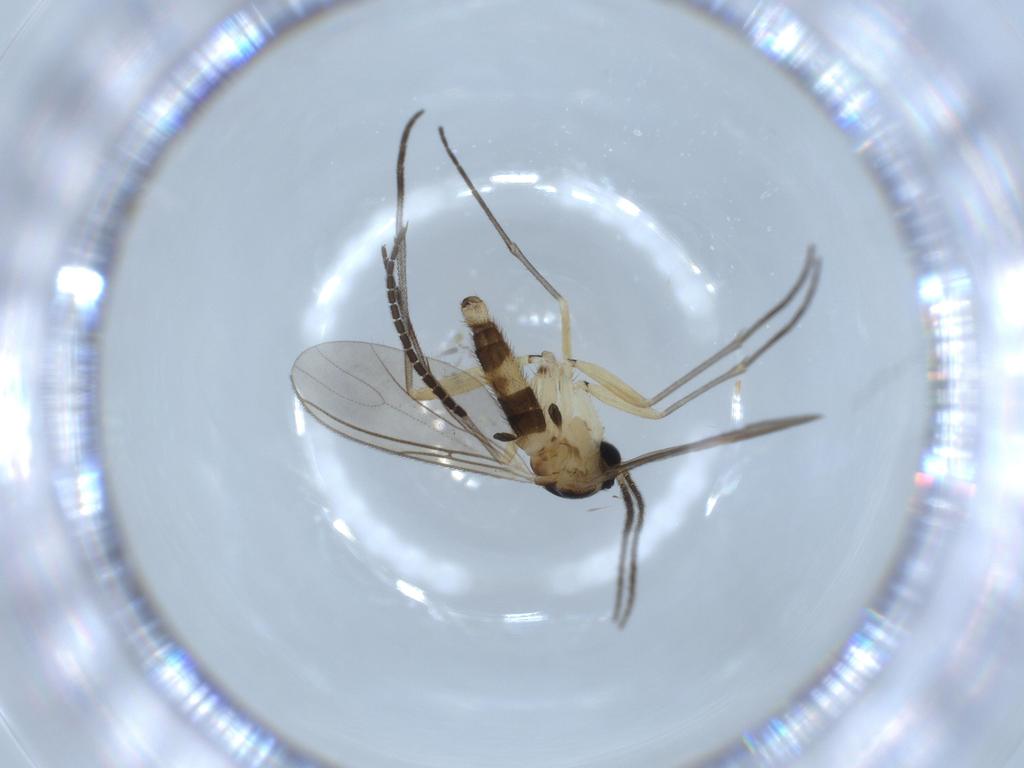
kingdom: Animalia
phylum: Arthropoda
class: Insecta
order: Diptera
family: Sciaridae
